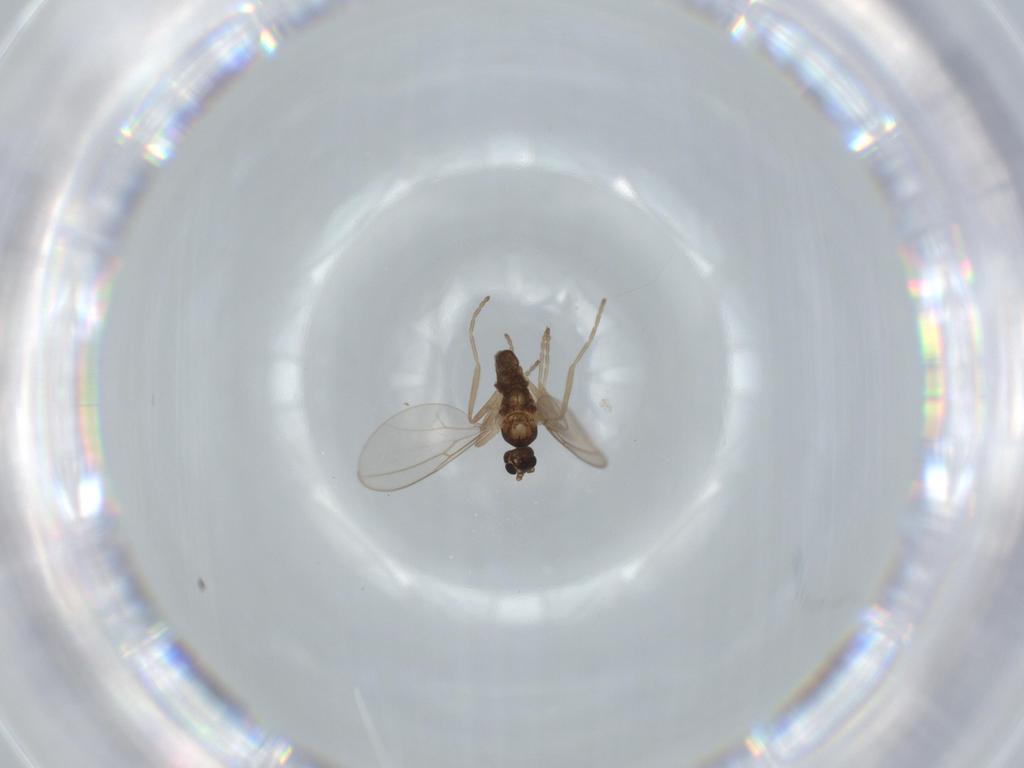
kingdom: Animalia
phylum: Arthropoda
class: Insecta
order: Diptera
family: Cecidomyiidae
